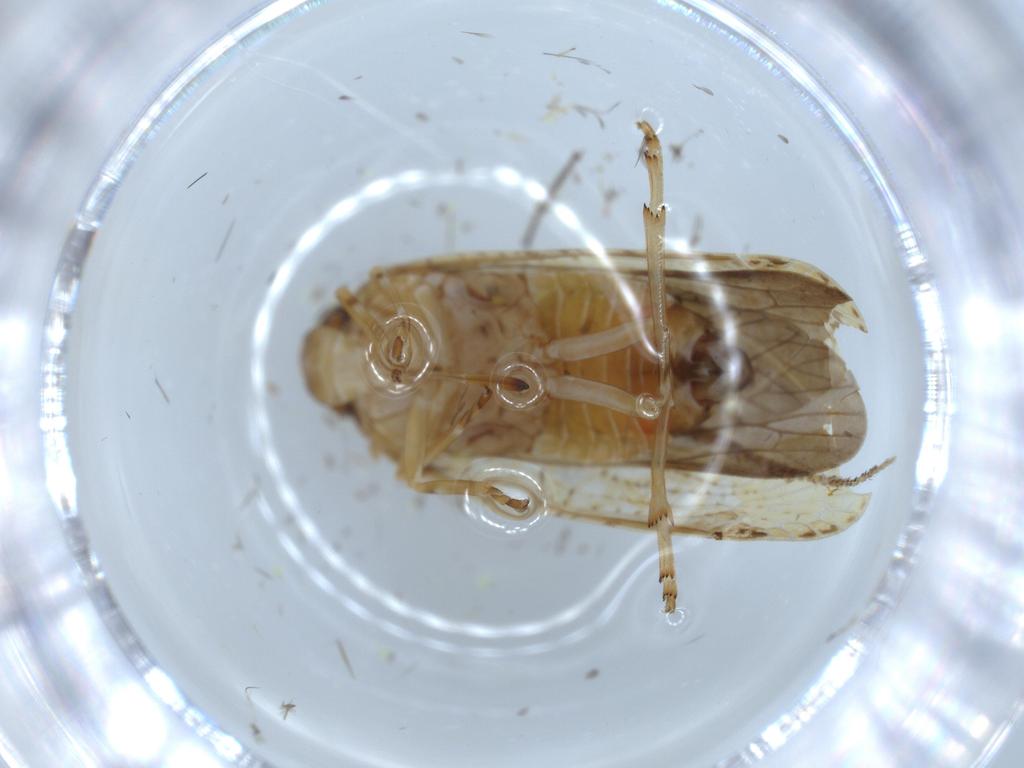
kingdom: Animalia
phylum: Arthropoda
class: Insecta
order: Hemiptera
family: Achilidae
